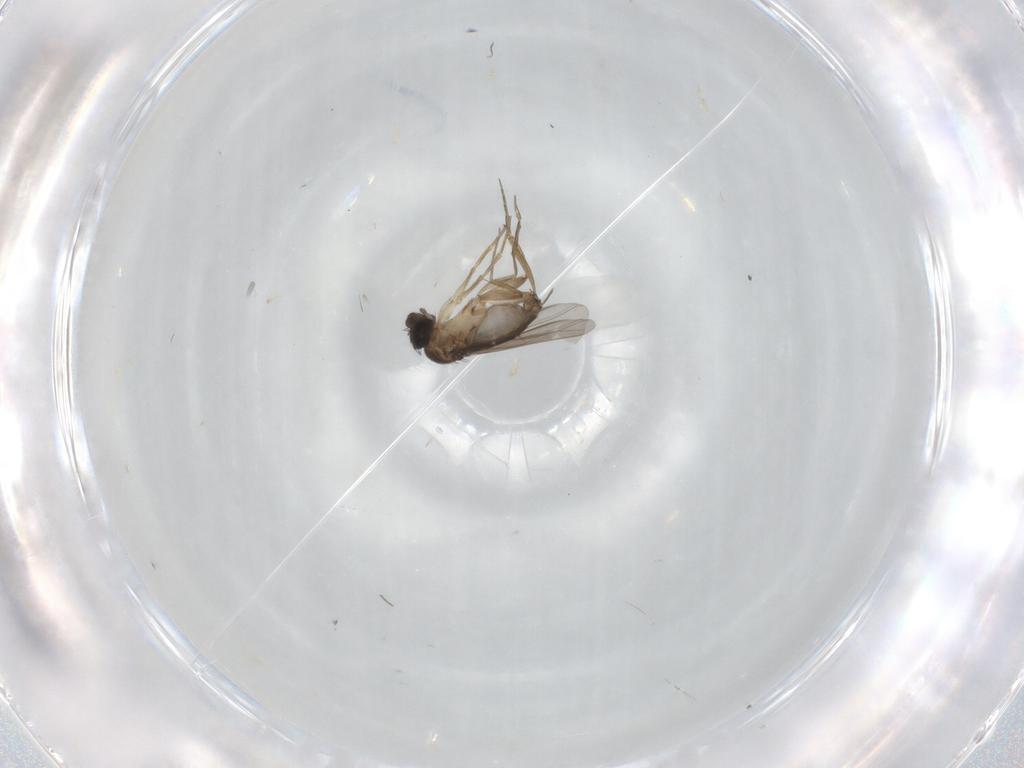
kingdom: Animalia
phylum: Arthropoda
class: Insecta
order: Diptera
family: Phoridae
